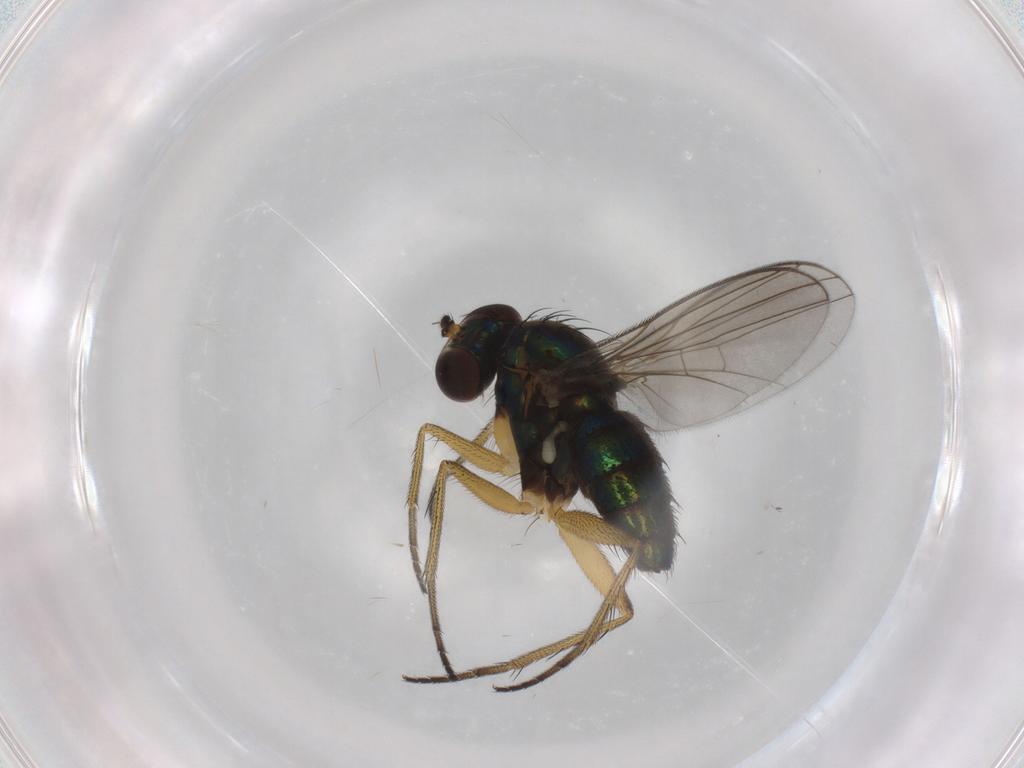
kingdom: Animalia
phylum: Arthropoda
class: Insecta
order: Diptera
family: Dolichopodidae
